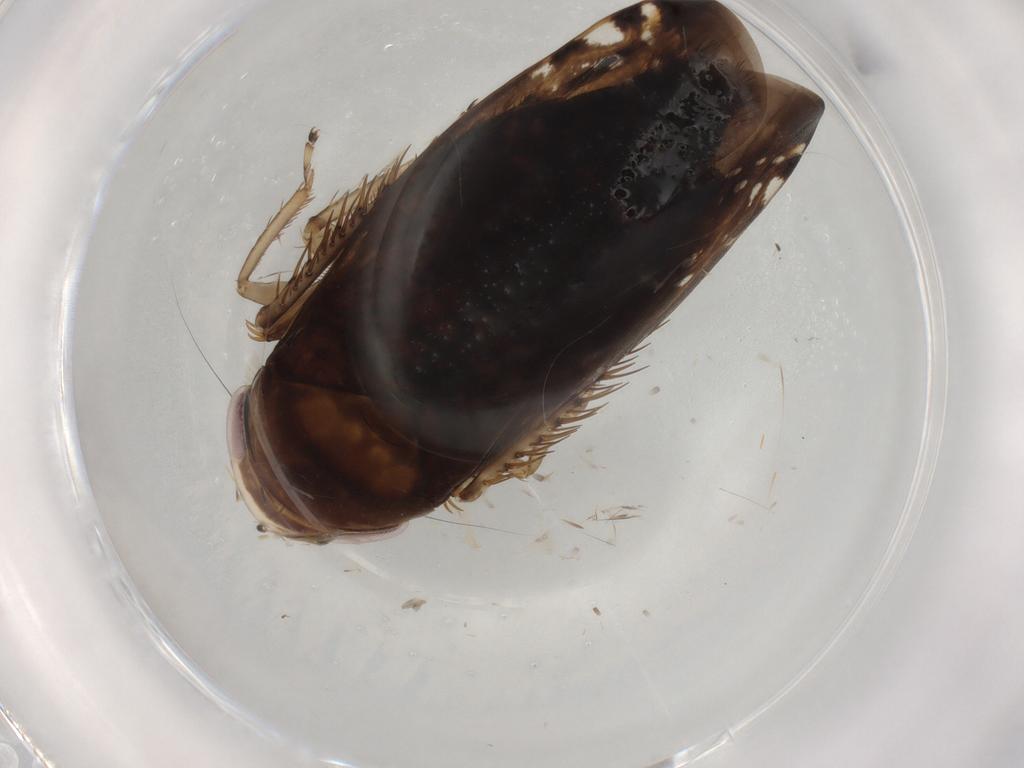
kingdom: Animalia
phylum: Arthropoda
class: Insecta
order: Hemiptera
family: Cicadellidae
